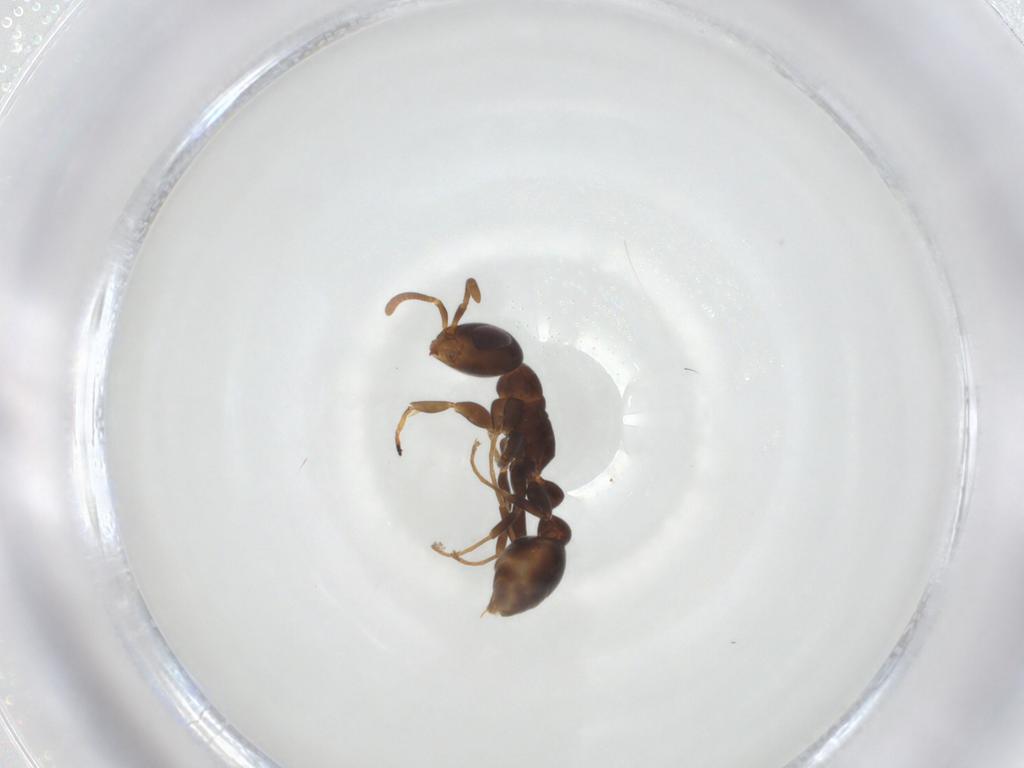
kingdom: Animalia
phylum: Arthropoda
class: Insecta
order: Hymenoptera
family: Formicidae
